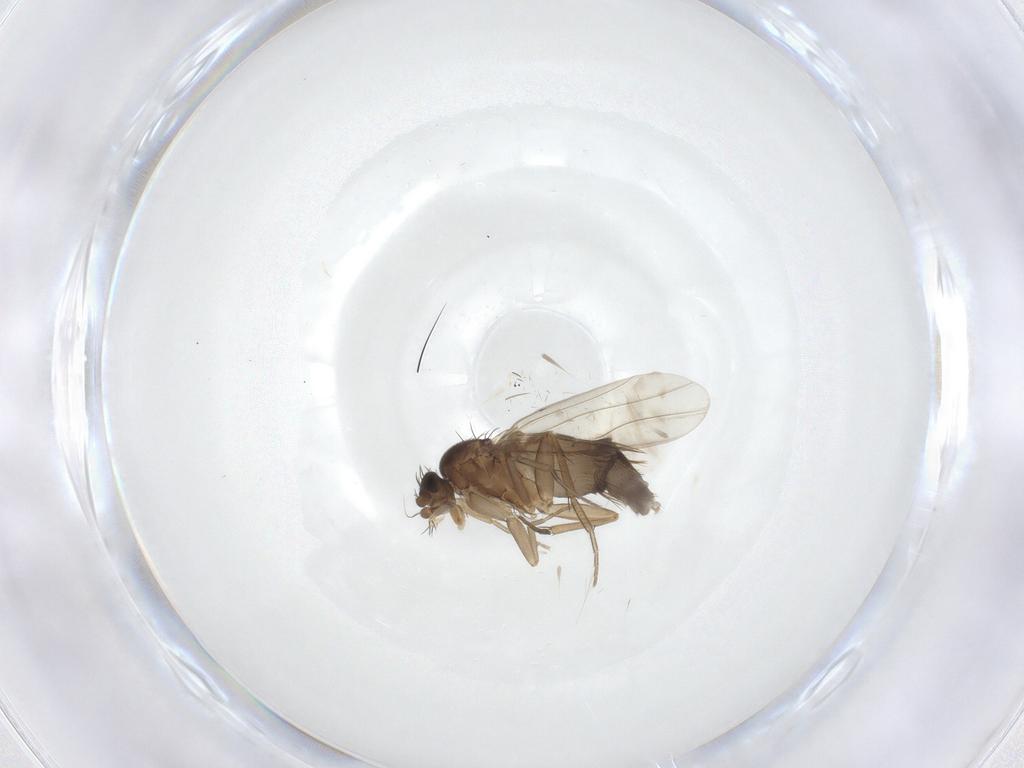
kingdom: Animalia
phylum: Arthropoda
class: Insecta
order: Diptera
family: Phoridae
